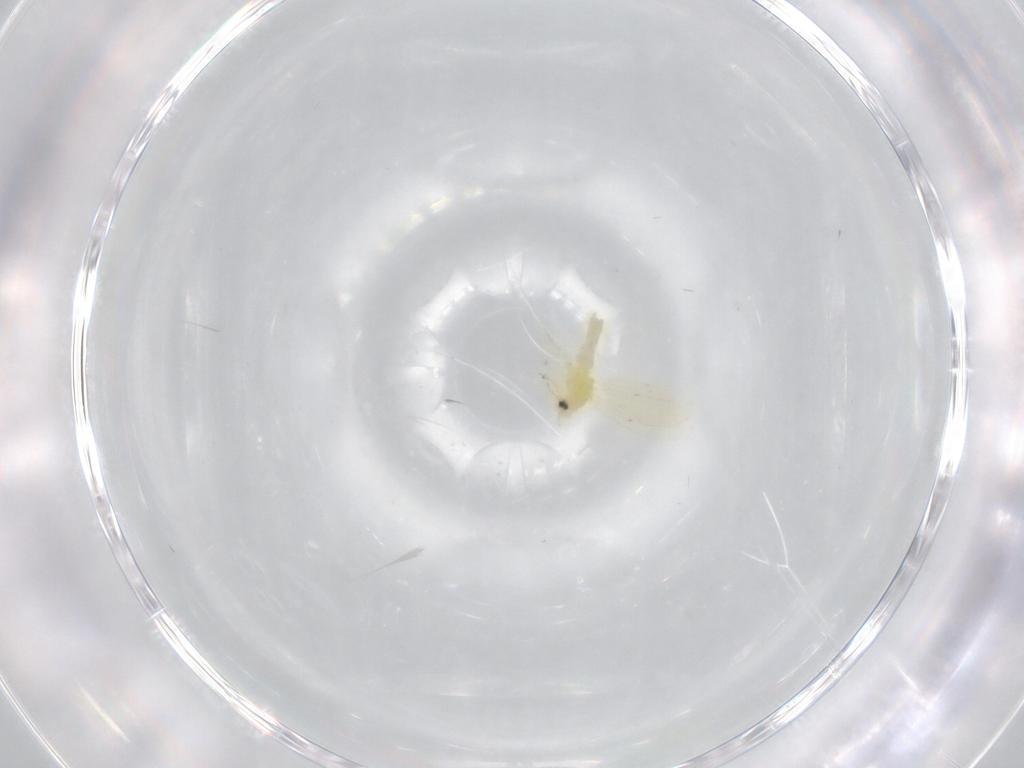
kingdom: Animalia
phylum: Arthropoda
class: Insecta
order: Hemiptera
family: Aleyrodidae
